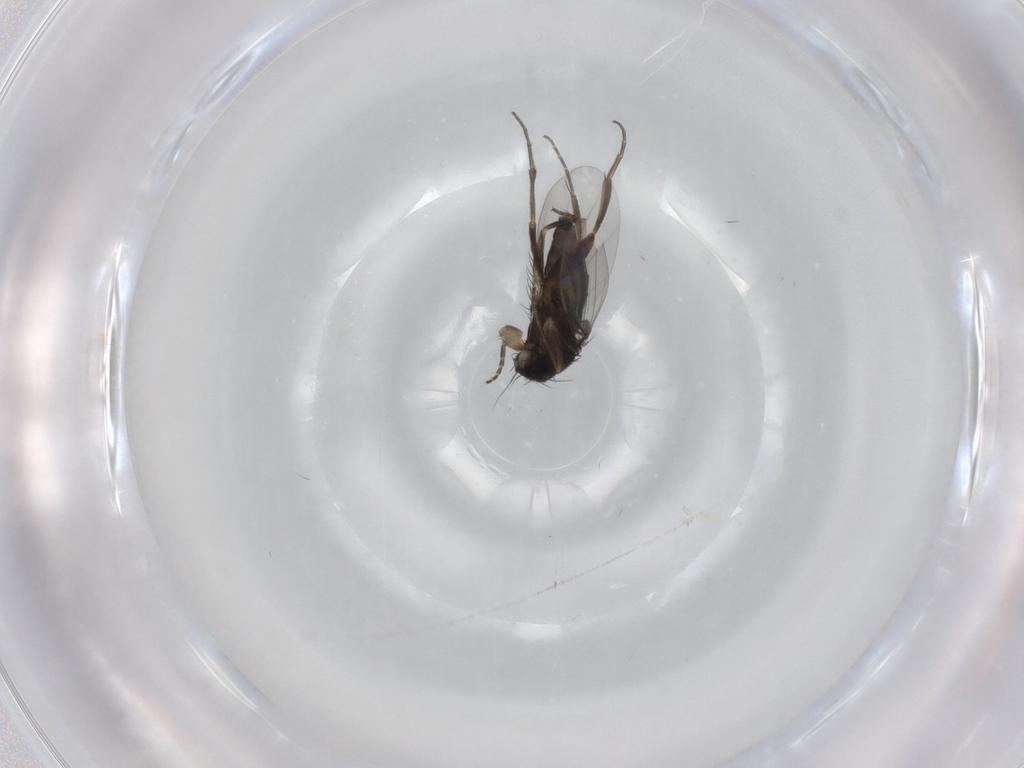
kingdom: Animalia
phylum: Arthropoda
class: Insecta
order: Diptera
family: Phoridae
